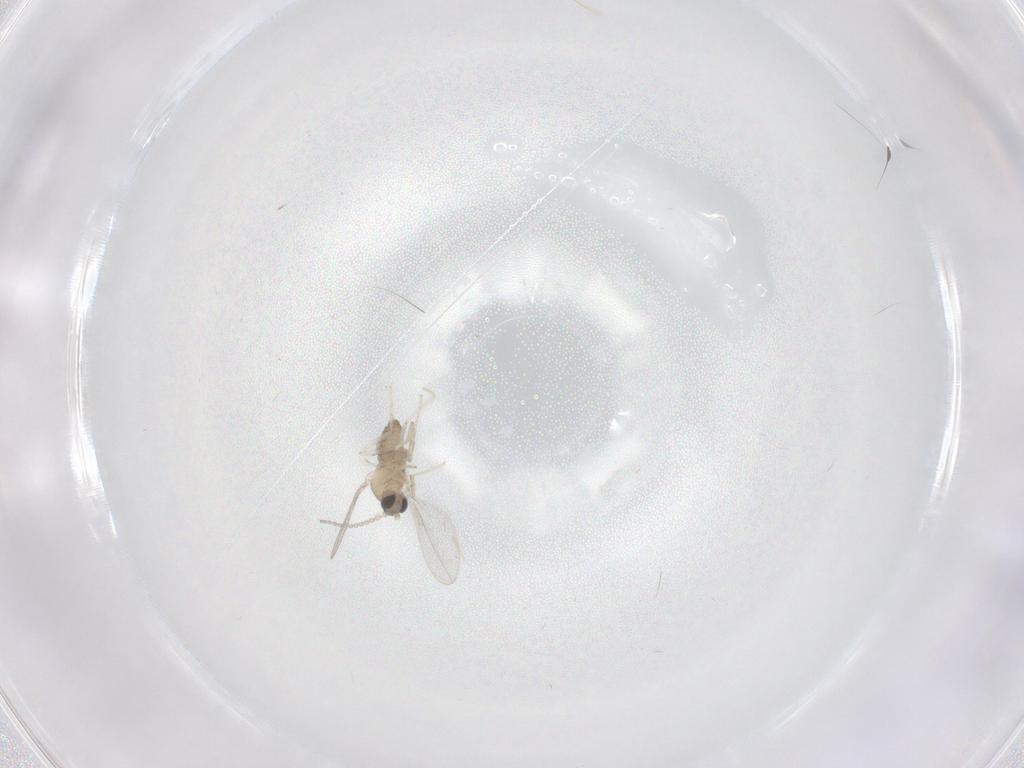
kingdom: Animalia
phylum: Arthropoda
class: Insecta
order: Diptera
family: Cecidomyiidae
